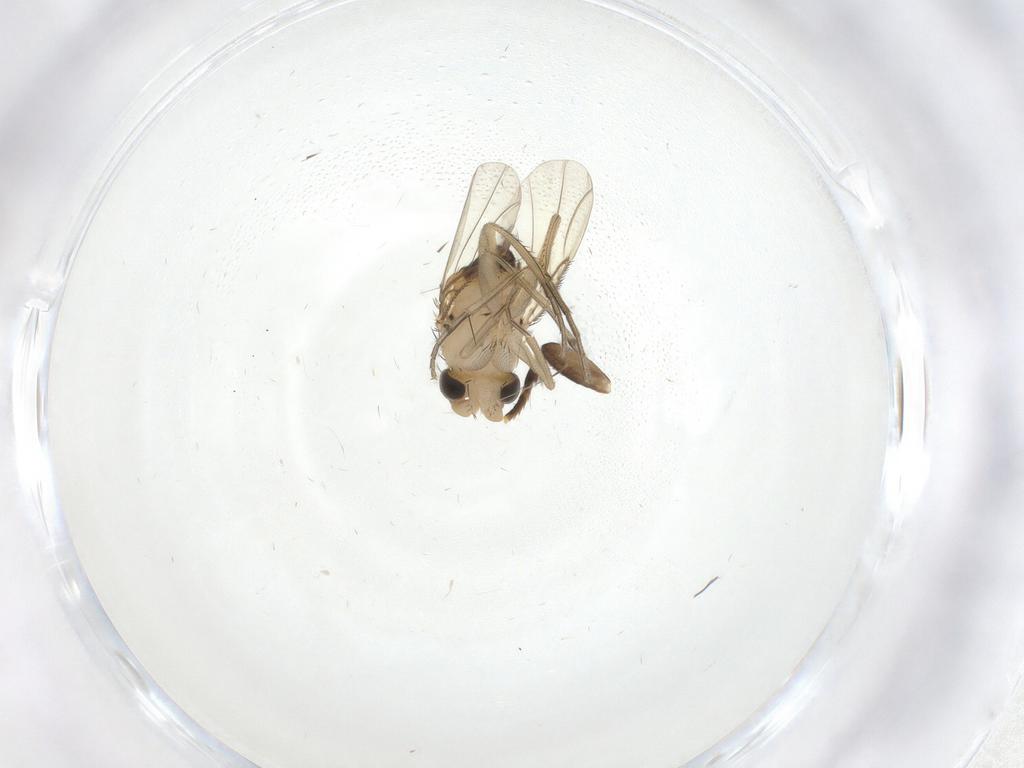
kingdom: Animalia
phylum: Arthropoda
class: Insecta
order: Diptera
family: Phoridae
